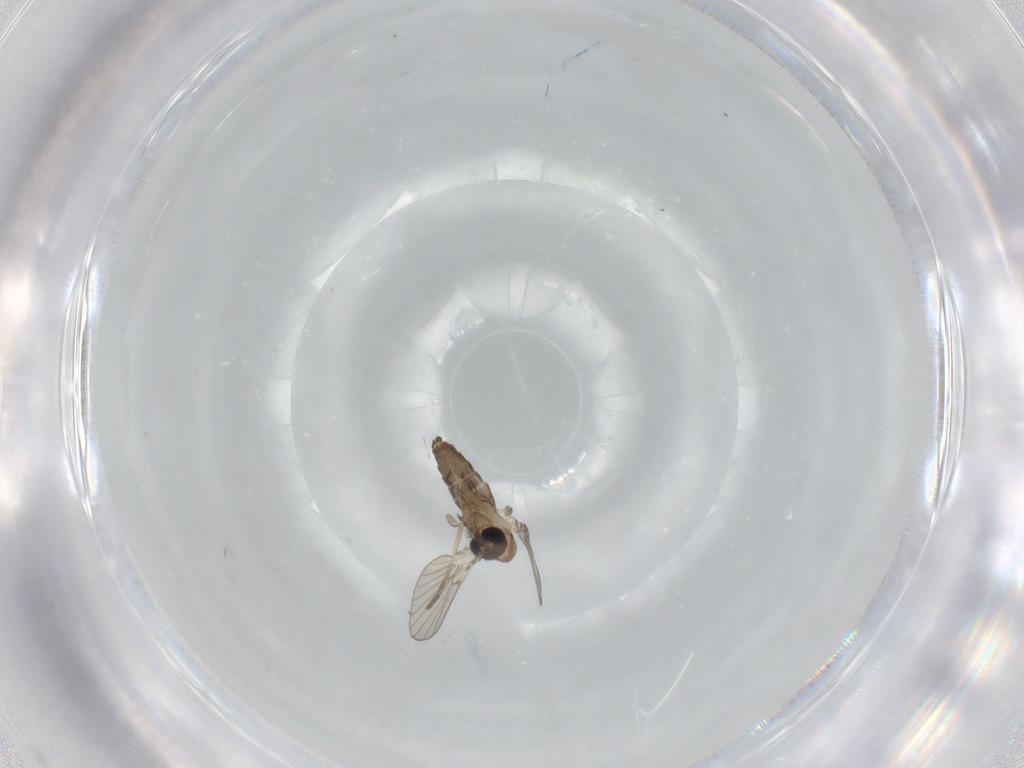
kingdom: Animalia
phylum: Arthropoda
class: Insecta
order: Diptera
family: Psychodidae
